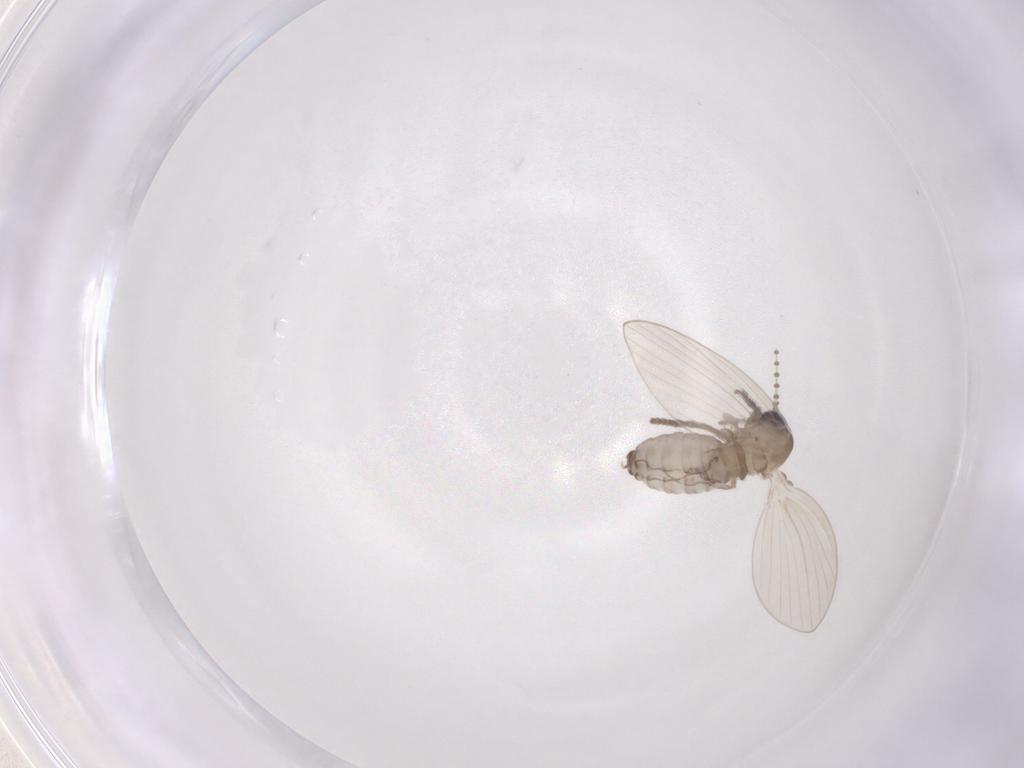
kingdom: Animalia
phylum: Arthropoda
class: Insecta
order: Diptera
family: Psychodidae
